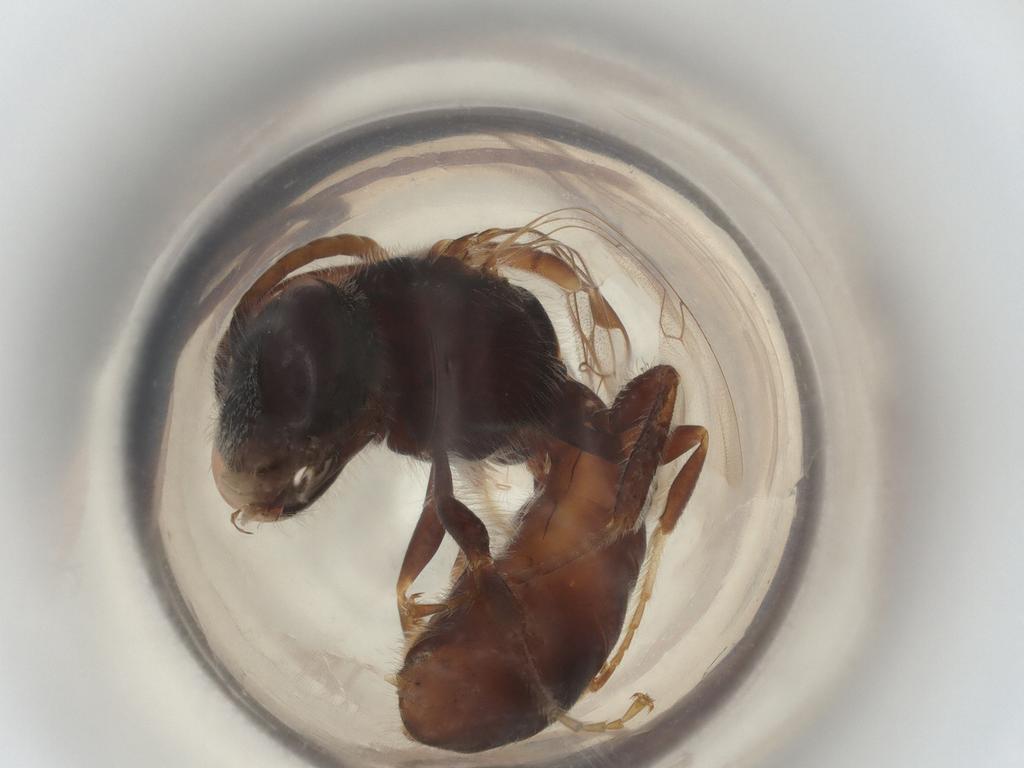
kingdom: Animalia
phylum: Arthropoda
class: Insecta
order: Hymenoptera
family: Halictidae
